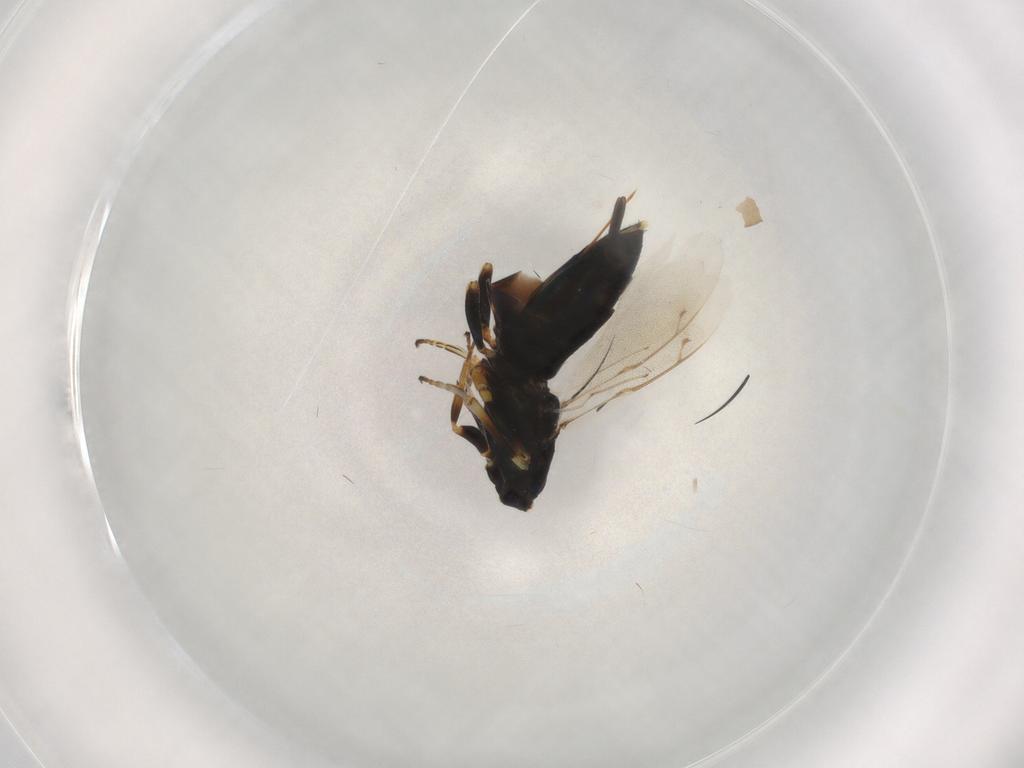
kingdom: Animalia
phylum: Arthropoda
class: Insecta
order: Hymenoptera
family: Eupelmidae
